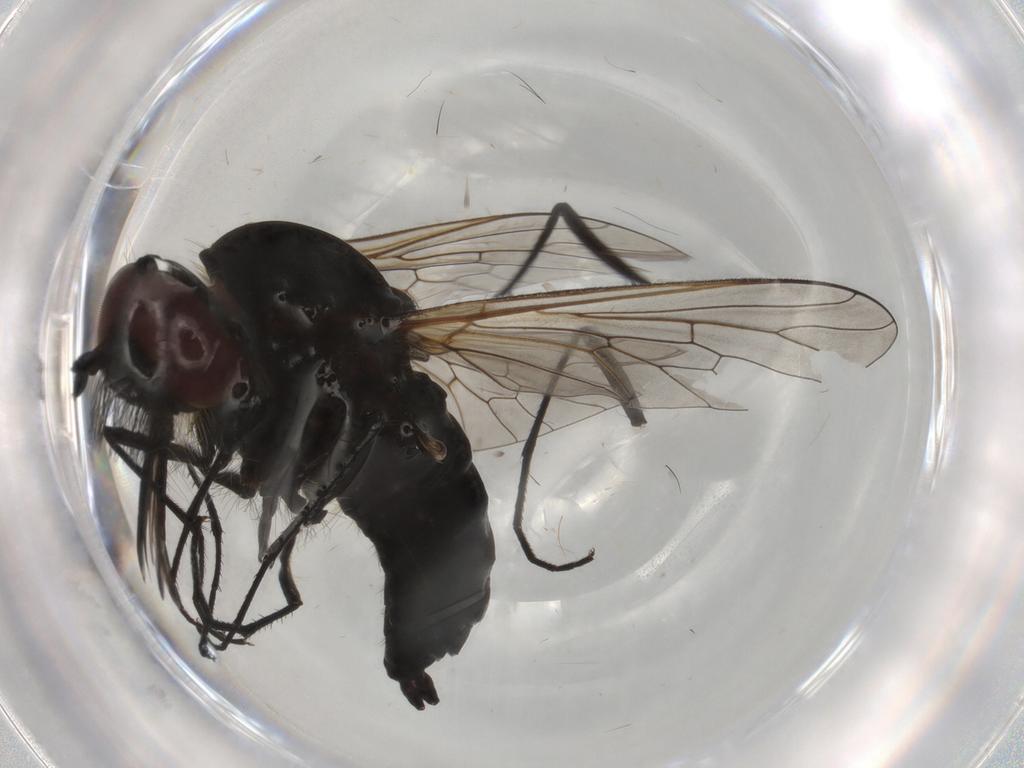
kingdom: Animalia
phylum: Arthropoda
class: Insecta
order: Diptera
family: Bombyliidae
